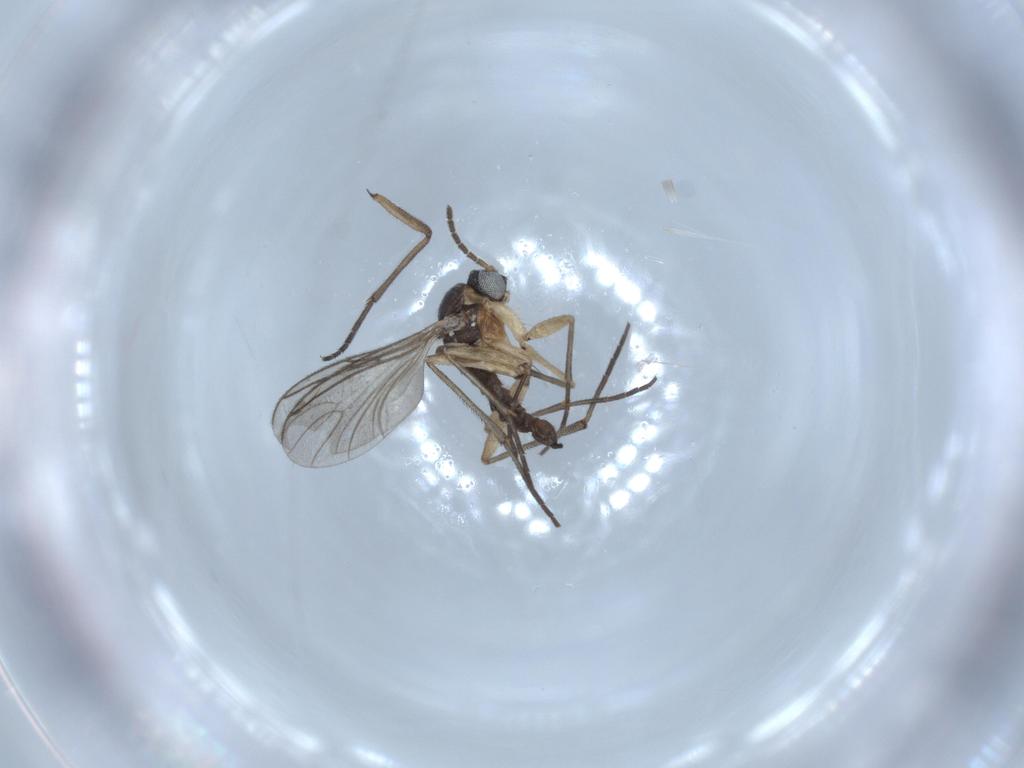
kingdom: Animalia
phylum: Arthropoda
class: Insecta
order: Diptera
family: Sciaridae
